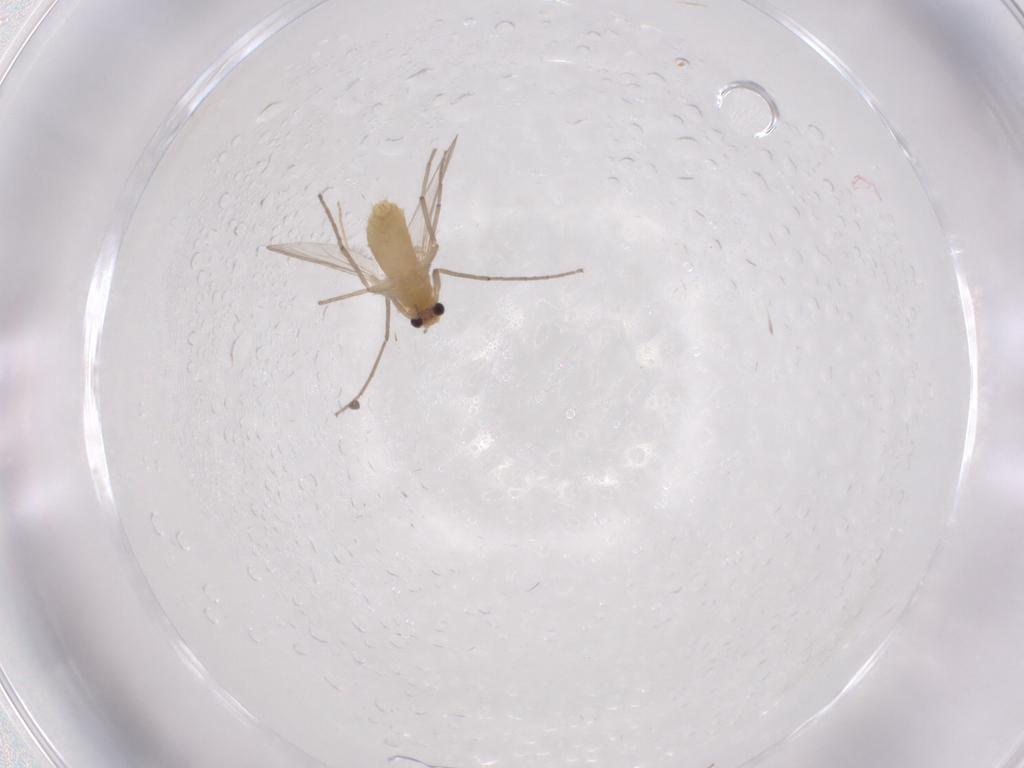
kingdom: Animalia
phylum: Arthropoda
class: Insecta
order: Diptera
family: Chironomidae
